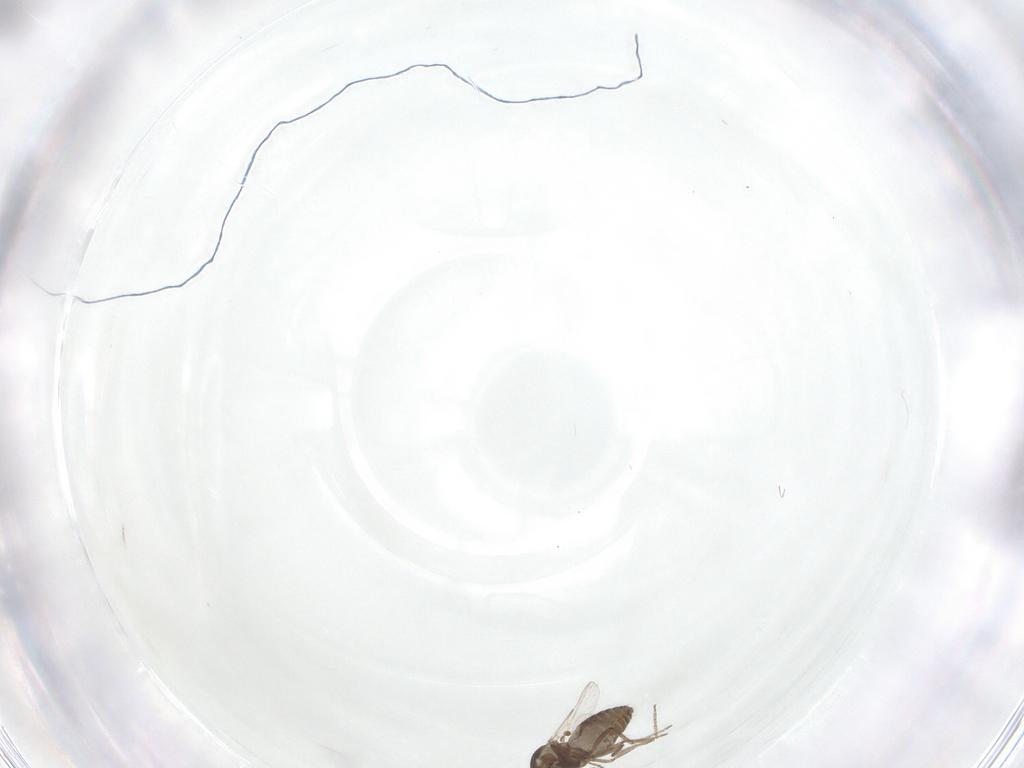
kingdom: Animalia
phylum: Arthropoda
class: Insecta
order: Diptera
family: Ceratopogonidae
